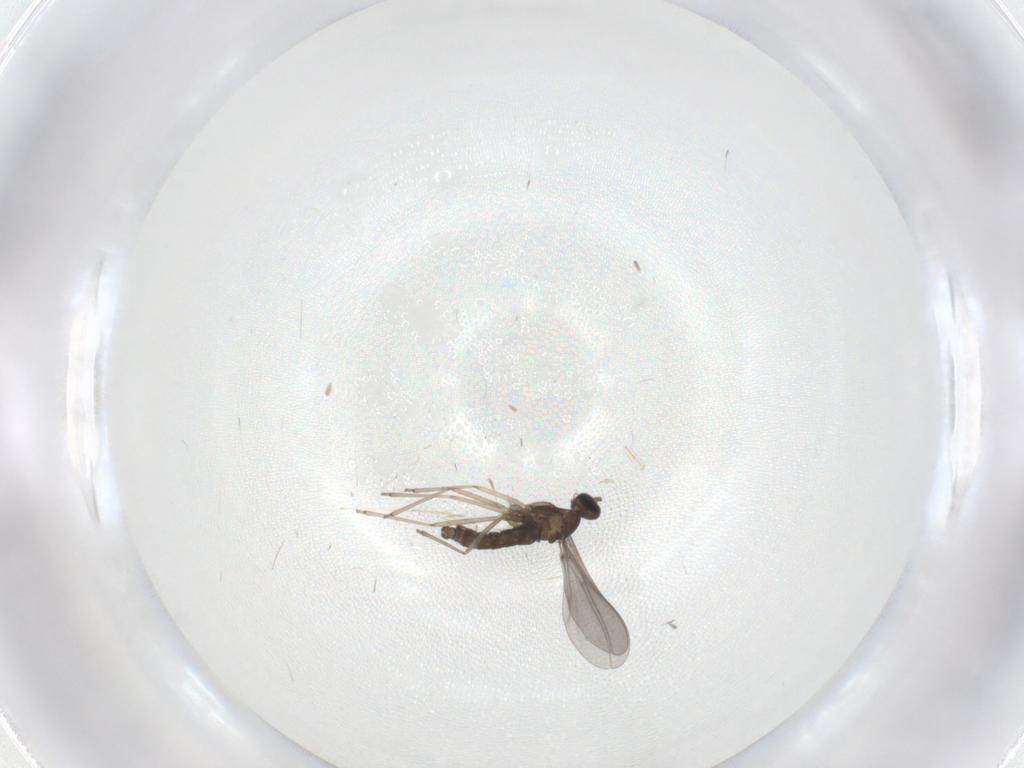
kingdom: Animalia
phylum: Arthropoda
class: Insecta
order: Diptera
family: Cecidomyiidae
